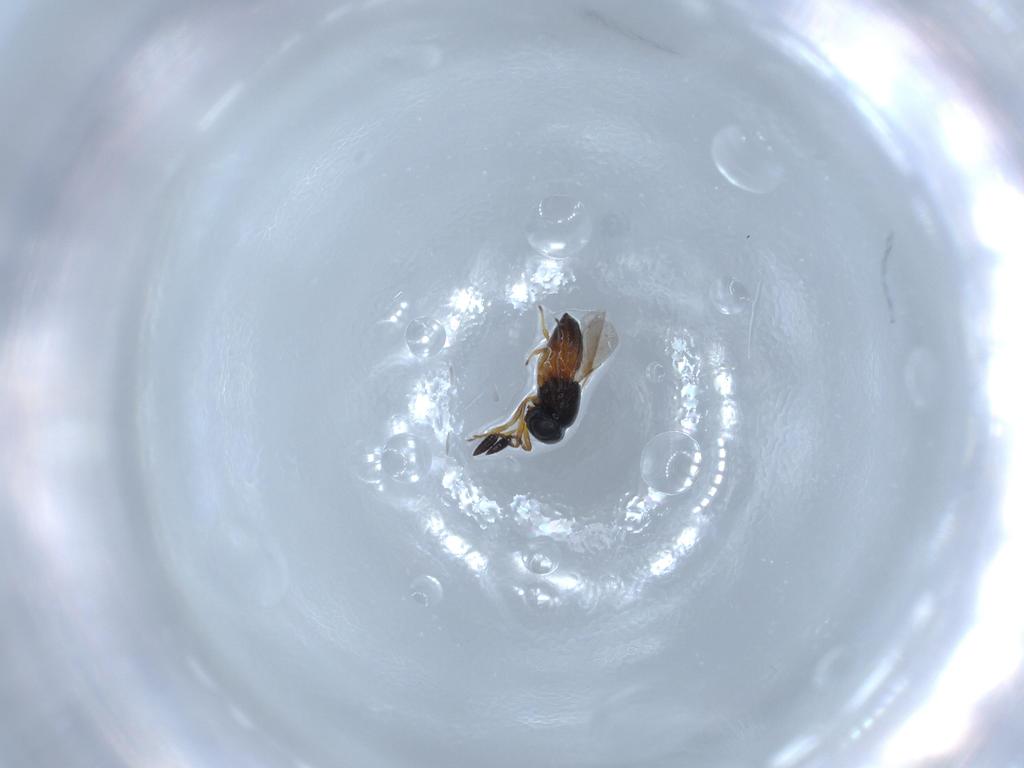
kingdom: Animalia
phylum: Arthropoda
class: Insecta
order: Hymenoptera
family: Scelionidae
